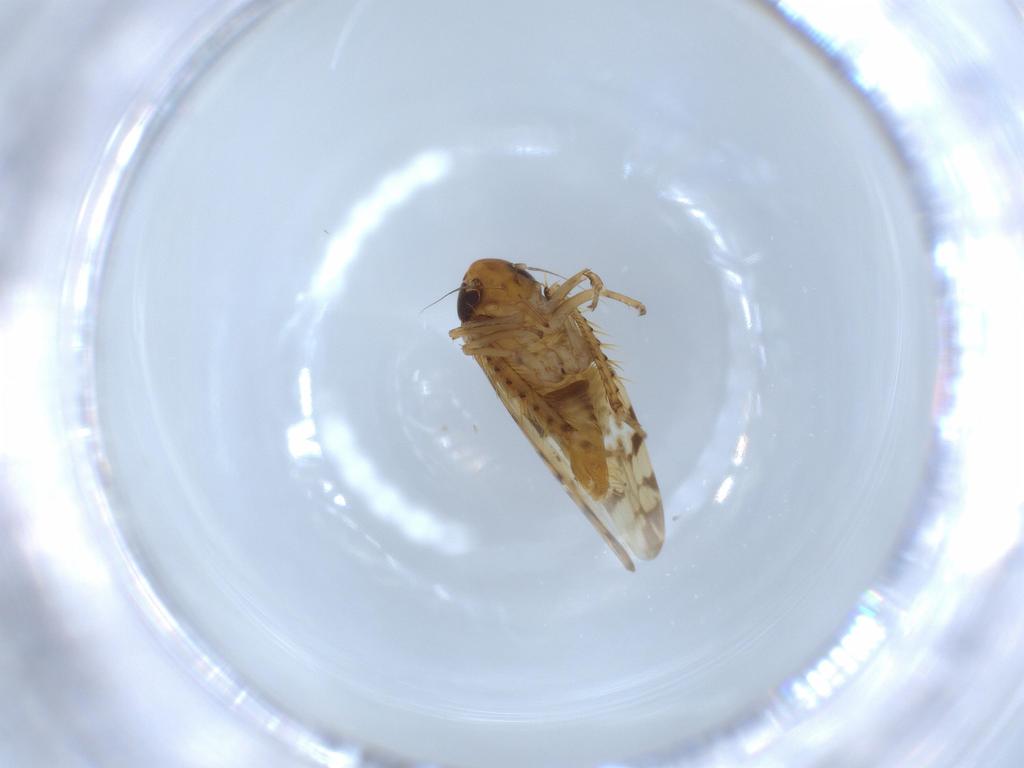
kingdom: Animalia
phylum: Arthropoda
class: Insecta
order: Hemiptera
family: Cicadellidae
